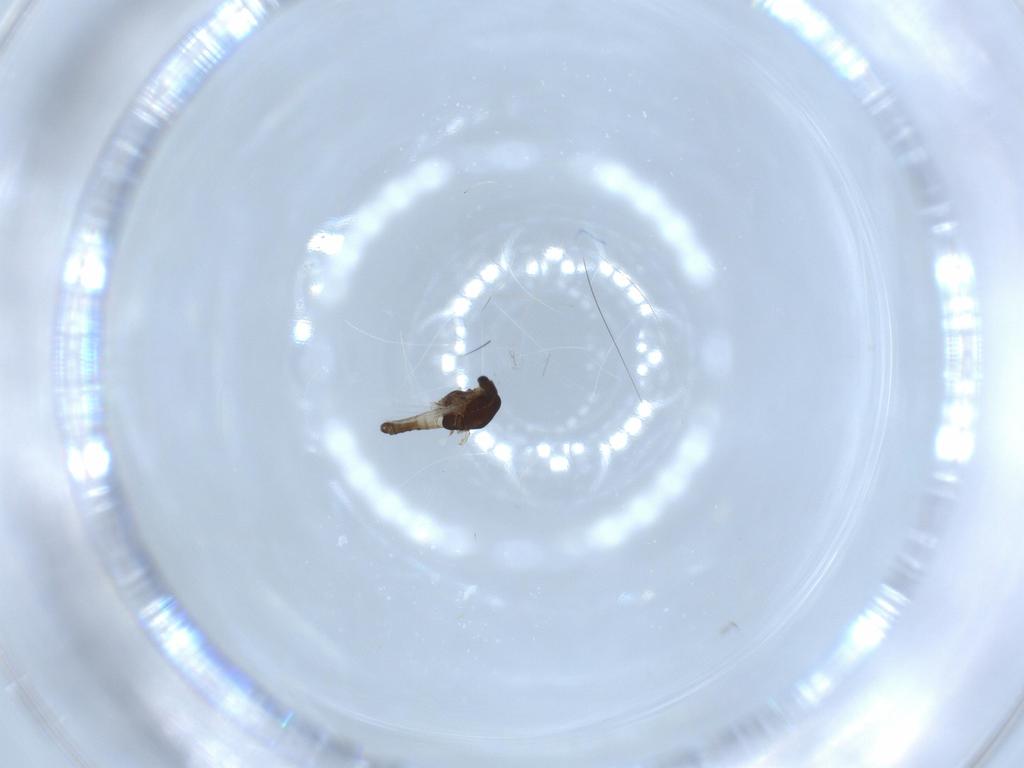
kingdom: Animalia
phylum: Arthropoda
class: Insecta
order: Diptera
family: Chironomidae
